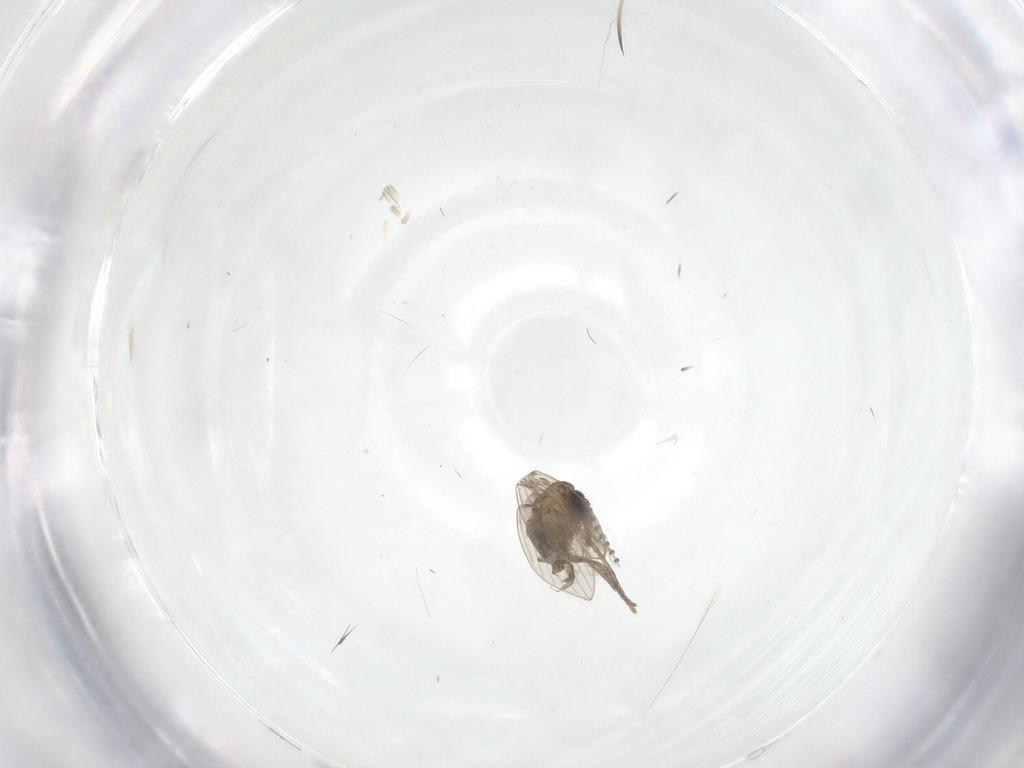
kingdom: Animalia
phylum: Arthropoda
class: Insecta
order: Diptera
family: Psychodidae
